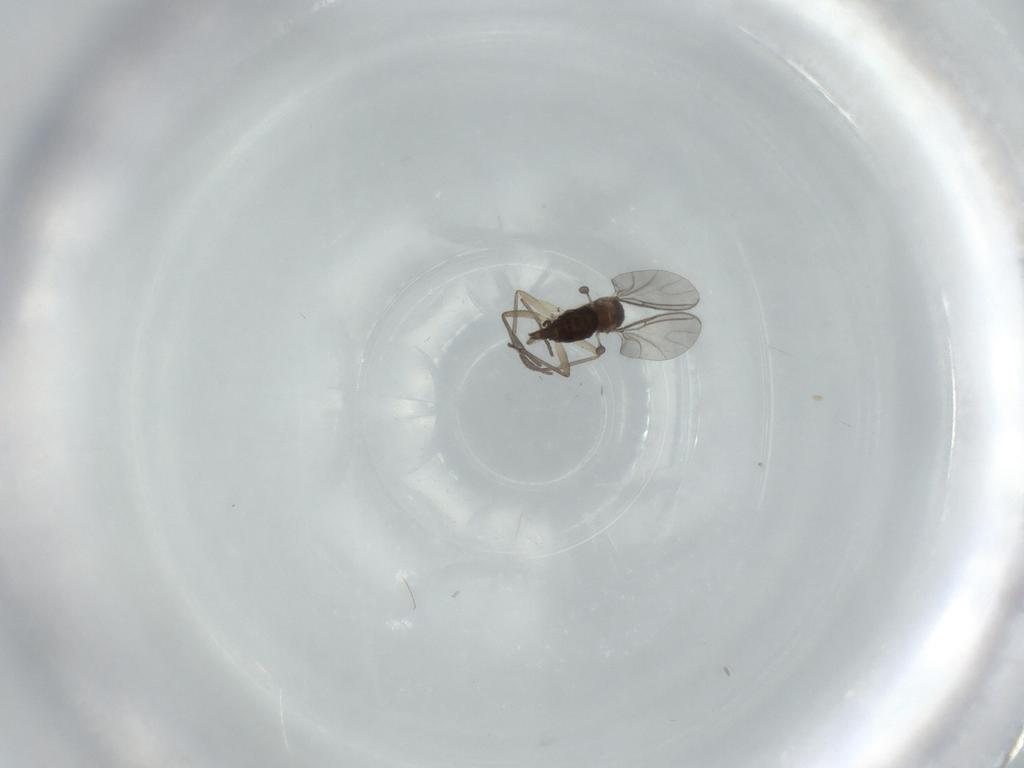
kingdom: Animalia
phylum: Arthropoda
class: Insecta
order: Diptera
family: Sciaridae
